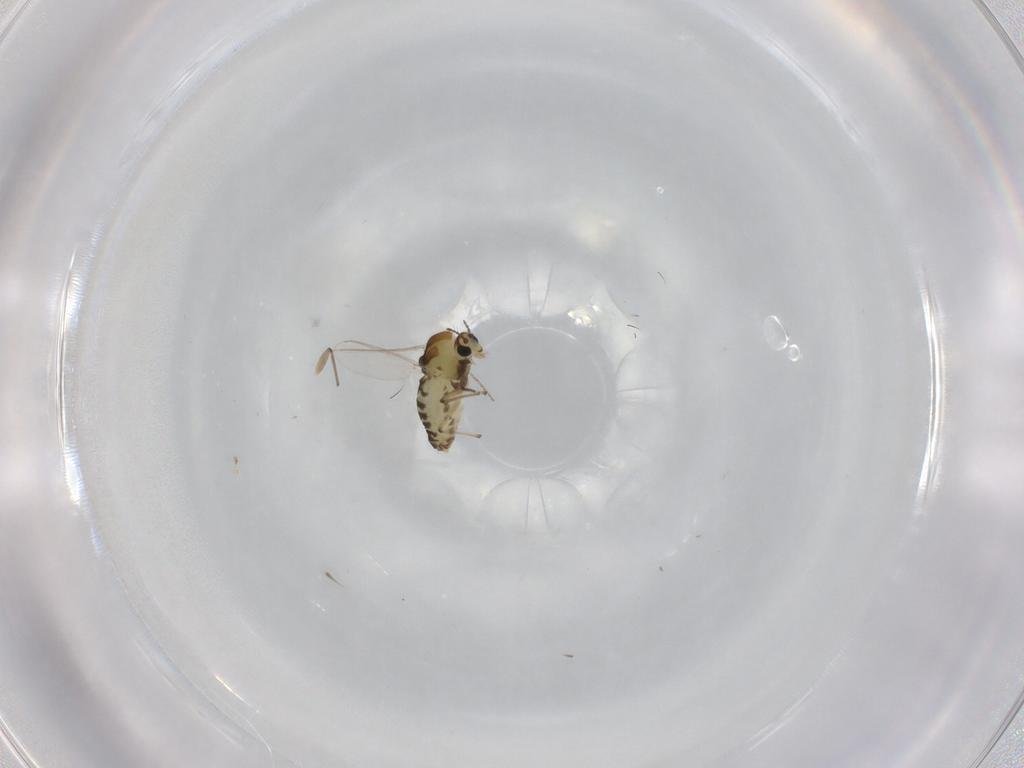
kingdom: Animalia
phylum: Arthropoda
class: Insecta
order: Diptera
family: Chironomidae
